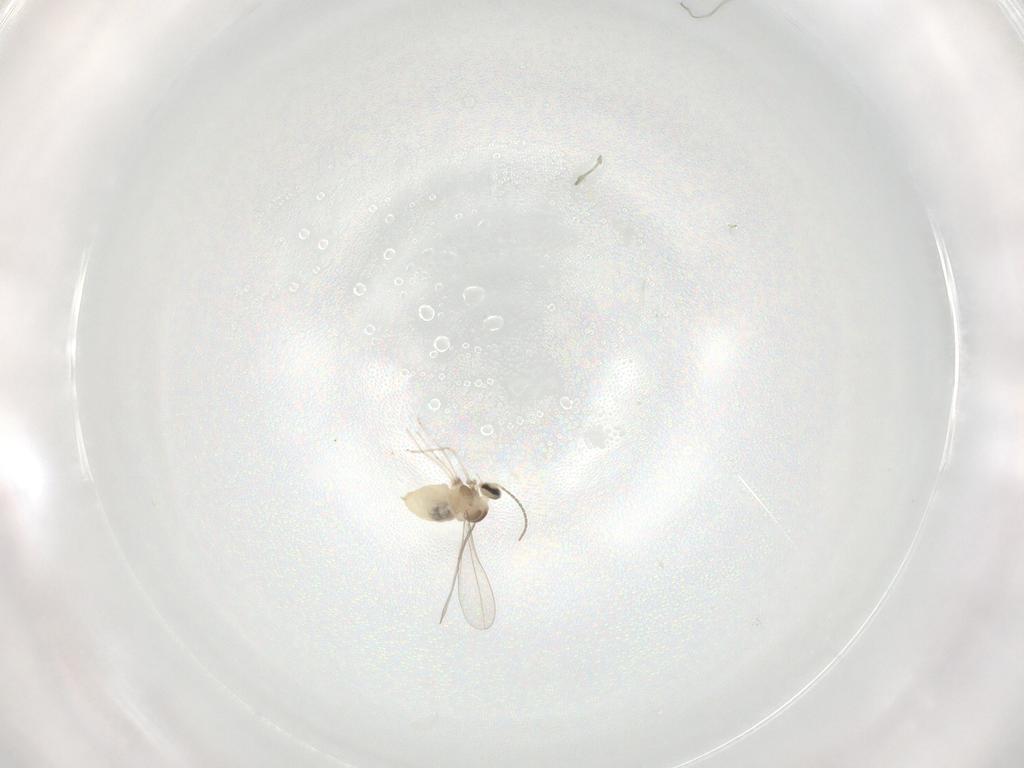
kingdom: Animalia
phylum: Arthropoda
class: Insecta
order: Diptera
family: Cecidomyiidae
